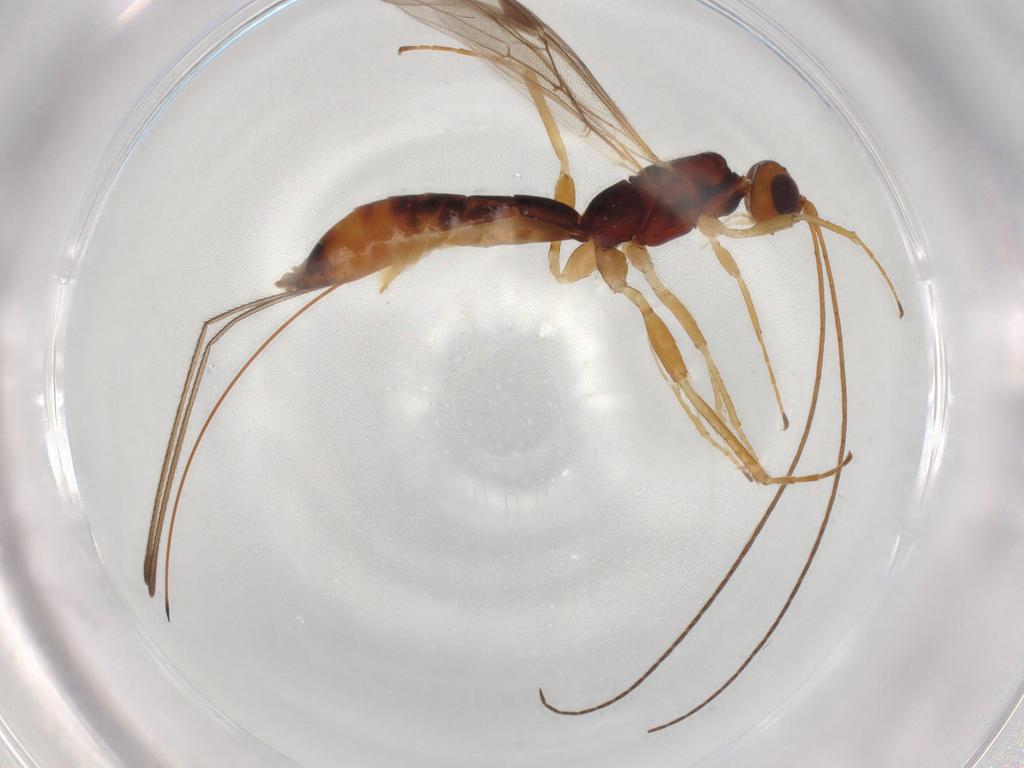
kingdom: Animalia
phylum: Arthropoda
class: Insecta
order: Hymenoptera
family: Braconidae
